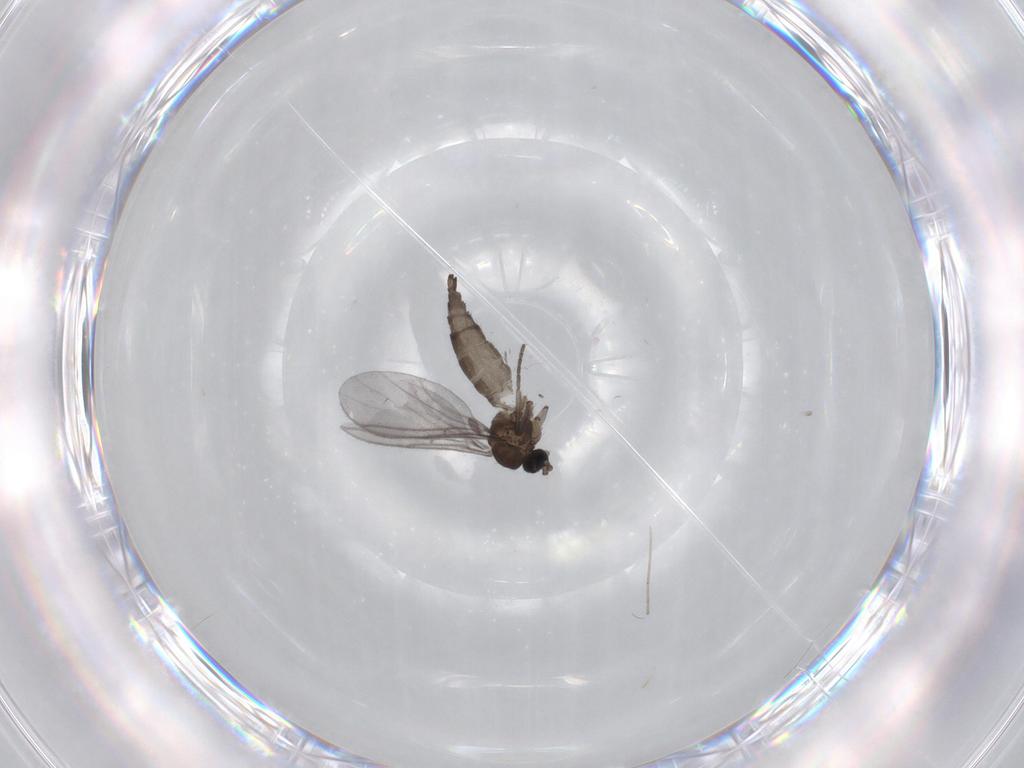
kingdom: Animalia
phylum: Arthropoda
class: Insecta
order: Diptera
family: Sciaridae
